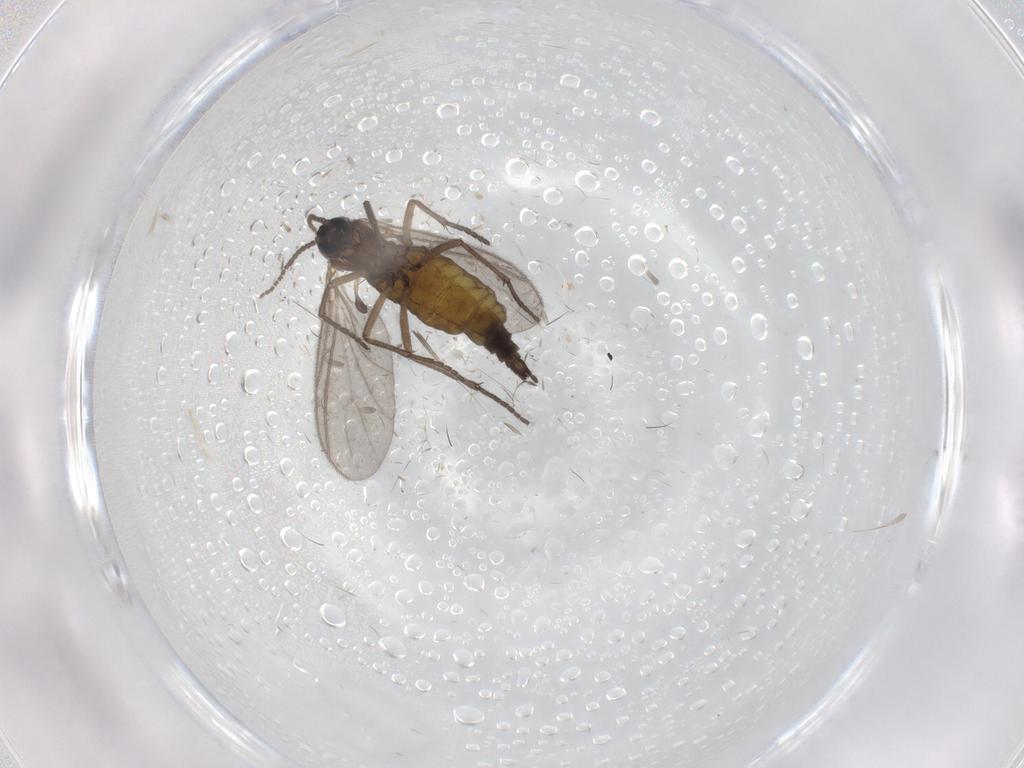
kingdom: Animalia
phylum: Arthropoda
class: Insecta
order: Diptera
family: Sciaridae
